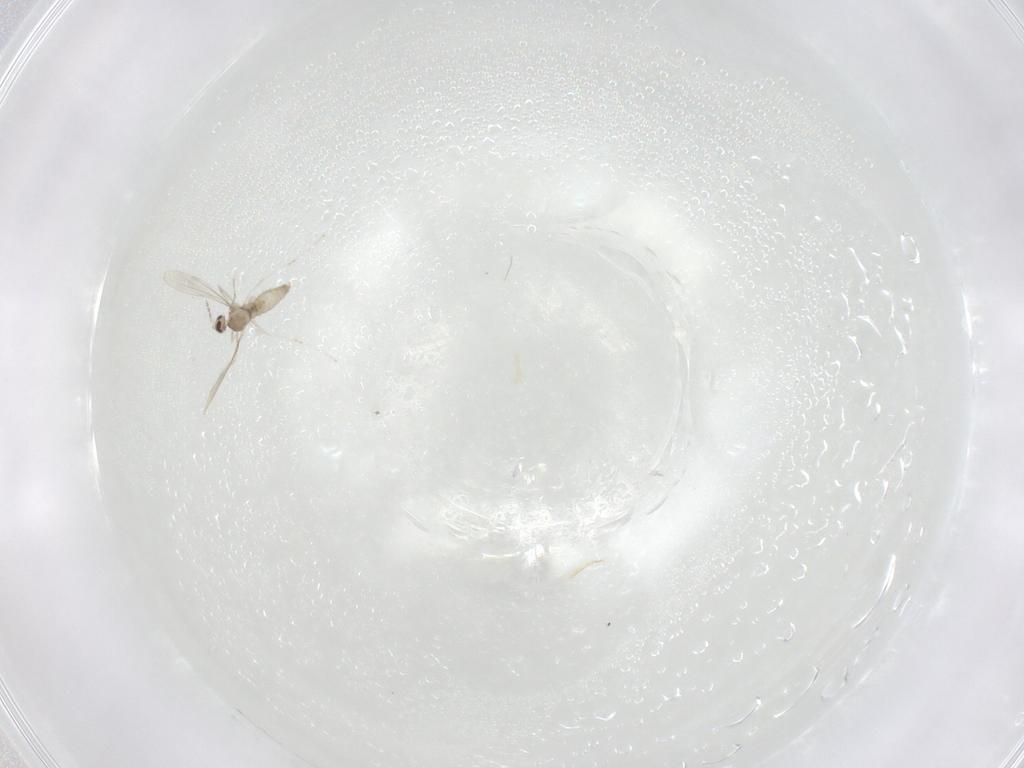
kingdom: Animalia
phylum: Arthropoda
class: Insecta
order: Diptera
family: Cecidomyiidae
